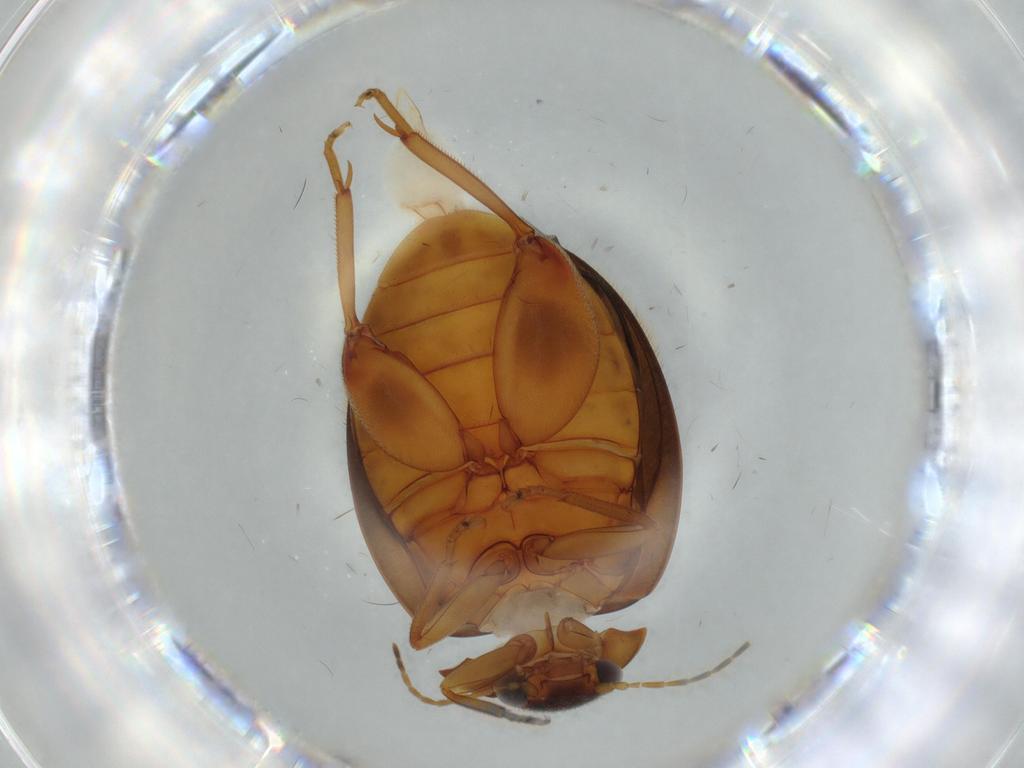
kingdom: Animalia
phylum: Arthropoda
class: Insecta
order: Coleoptera
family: Scirtidae
